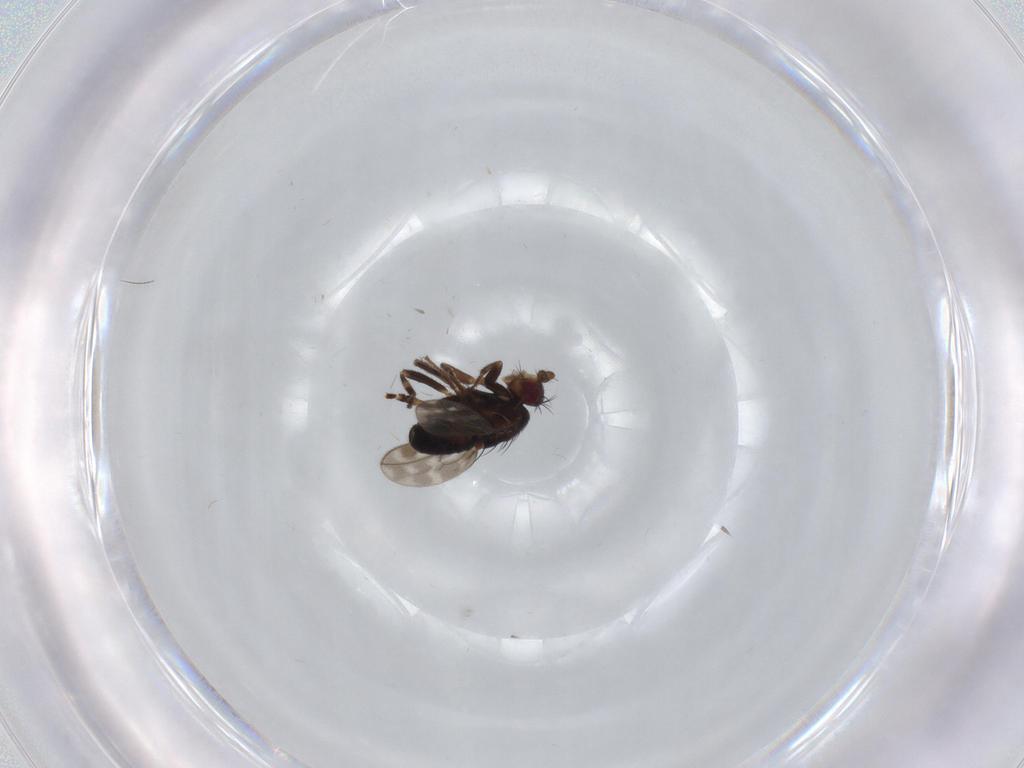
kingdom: Animalia
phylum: Arthropoda
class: Insecta
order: Diptera
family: Sphaeroceridae
